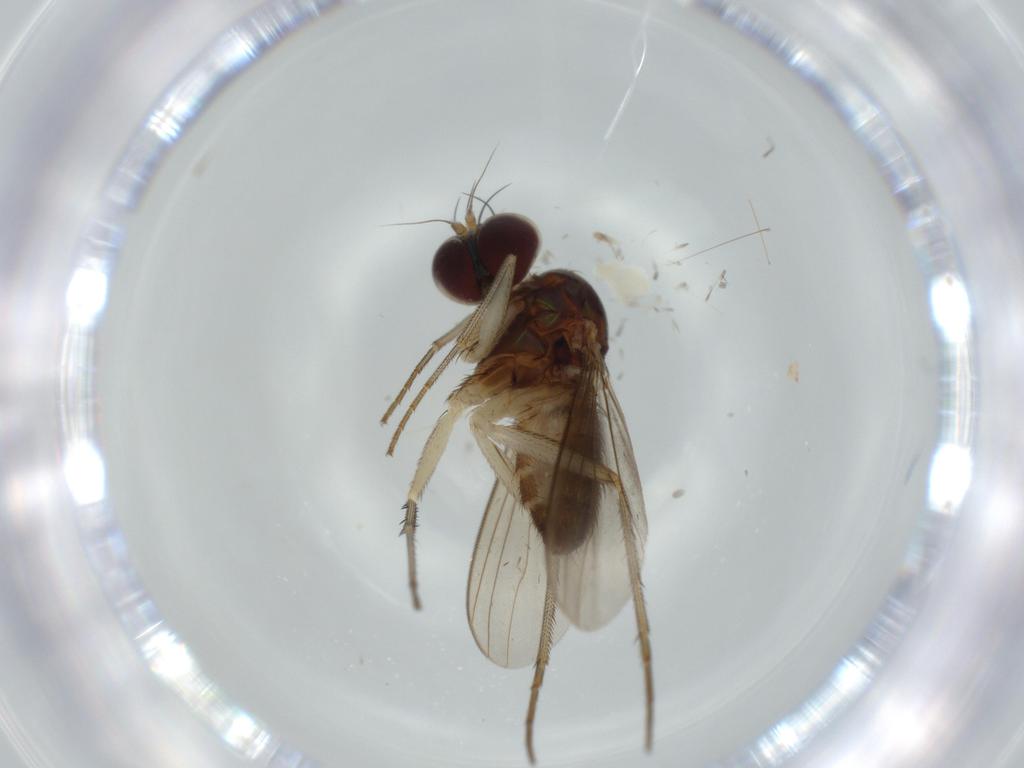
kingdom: Animalia
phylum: Arthropoda
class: Insecta
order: Diptera
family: Dolichopodidae
